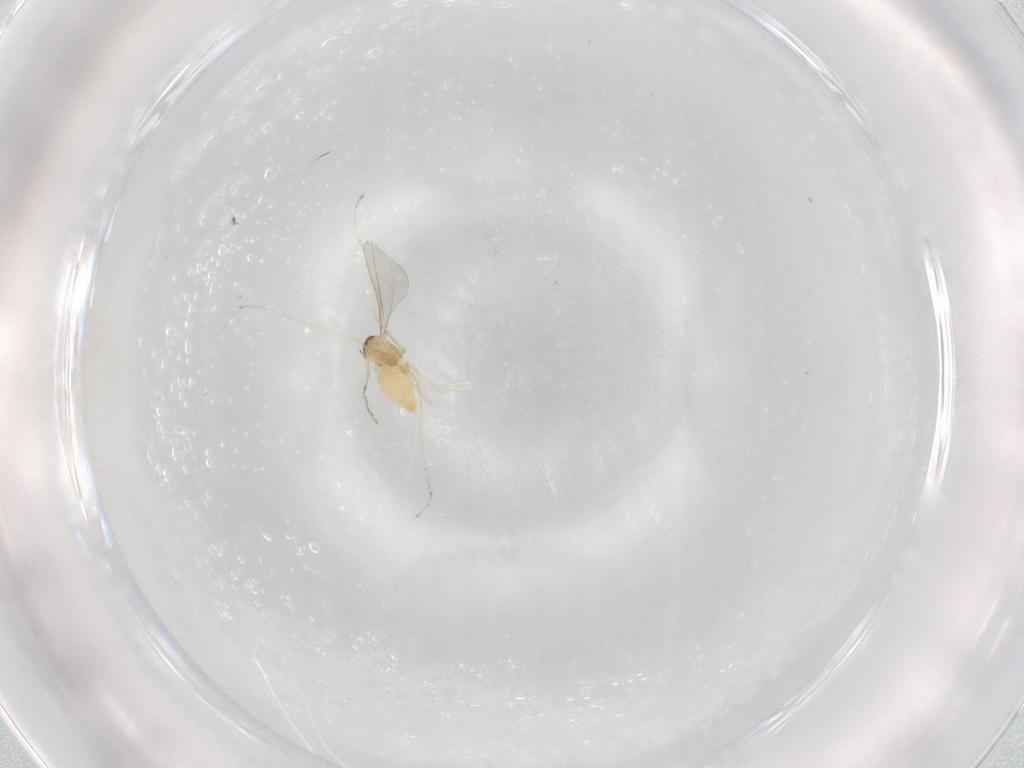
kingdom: Animalia
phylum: Arthropoda
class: Insecta
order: Diptera
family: Cecidomyiidae
